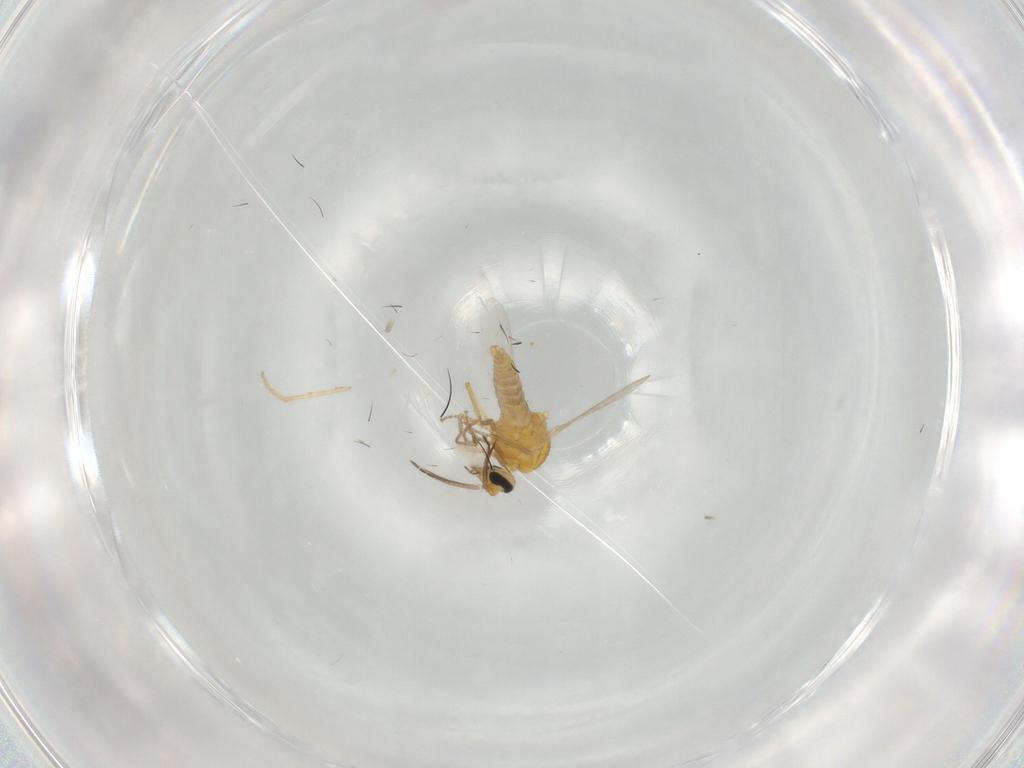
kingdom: Animalia
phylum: Arthropoda
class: Insecta
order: Diptera
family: Ceratopogonidae
